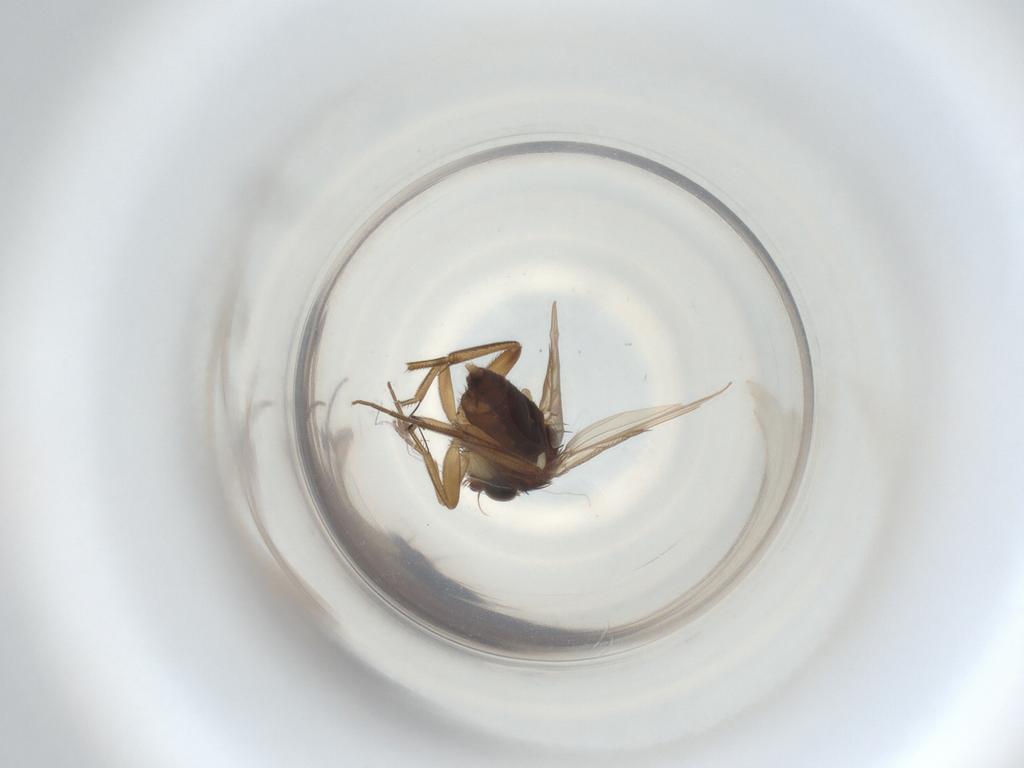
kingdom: Animalia
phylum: Arthropoda
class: Insecta
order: Diptera
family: Phoridae
